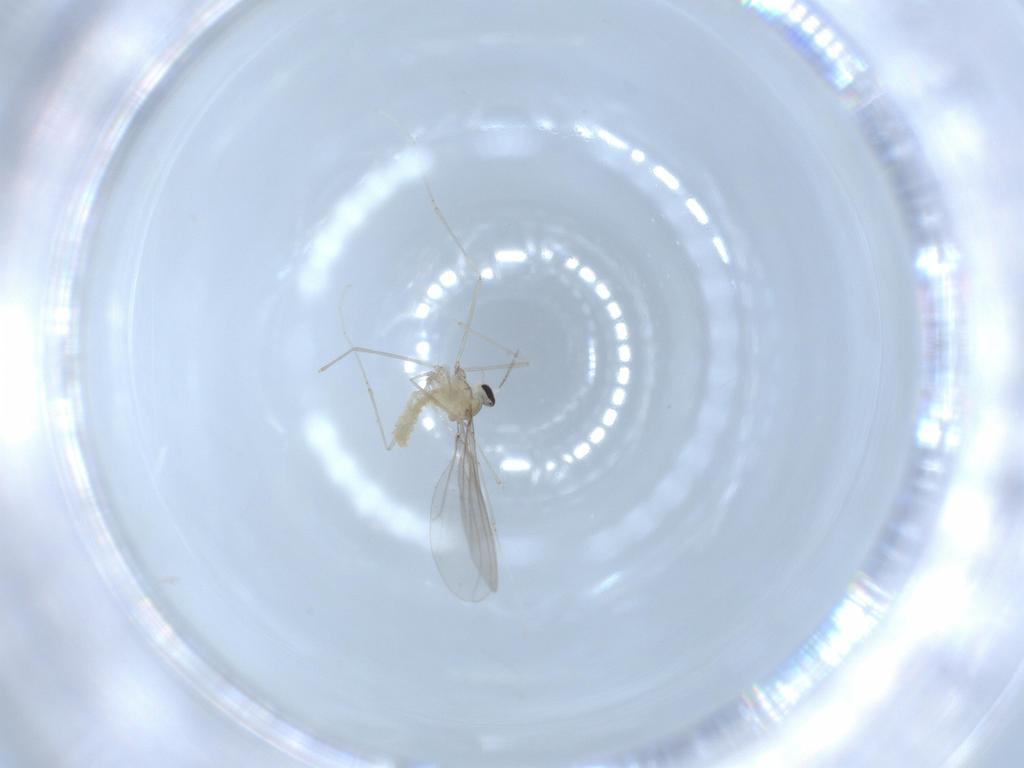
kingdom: Animalia
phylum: Arthropoda
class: Insecta
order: Diptera
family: Cecidomyiidae
